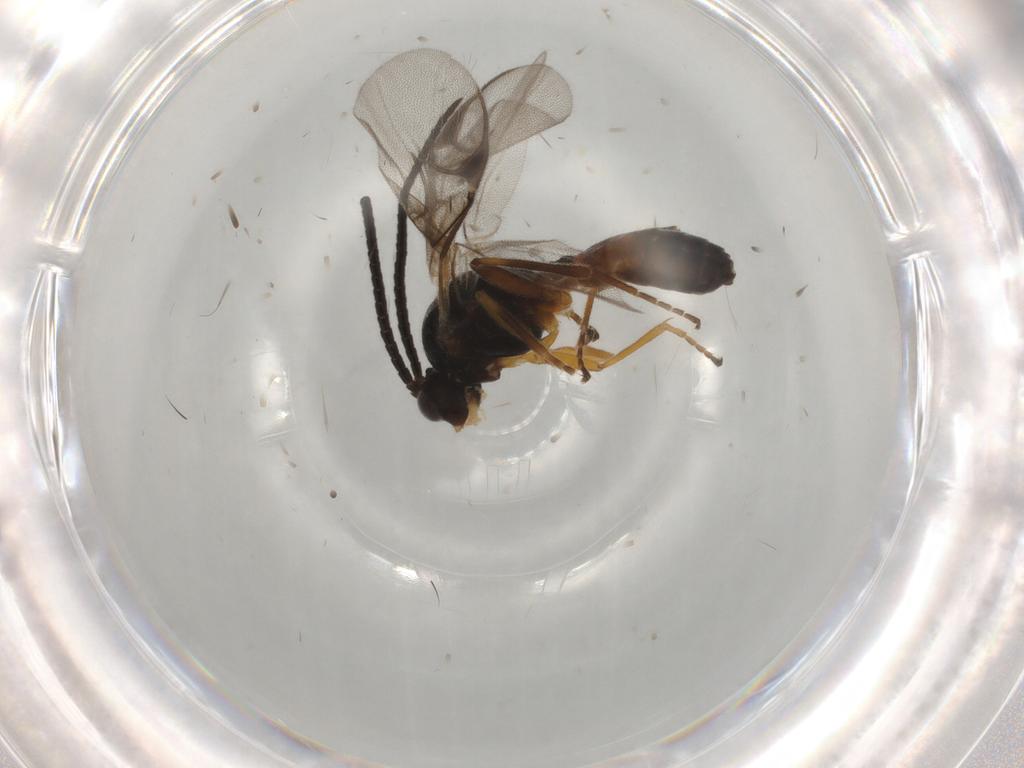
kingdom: Animalia
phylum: Arthropoda
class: Insecta
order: Hymenoptera
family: Braconidae
